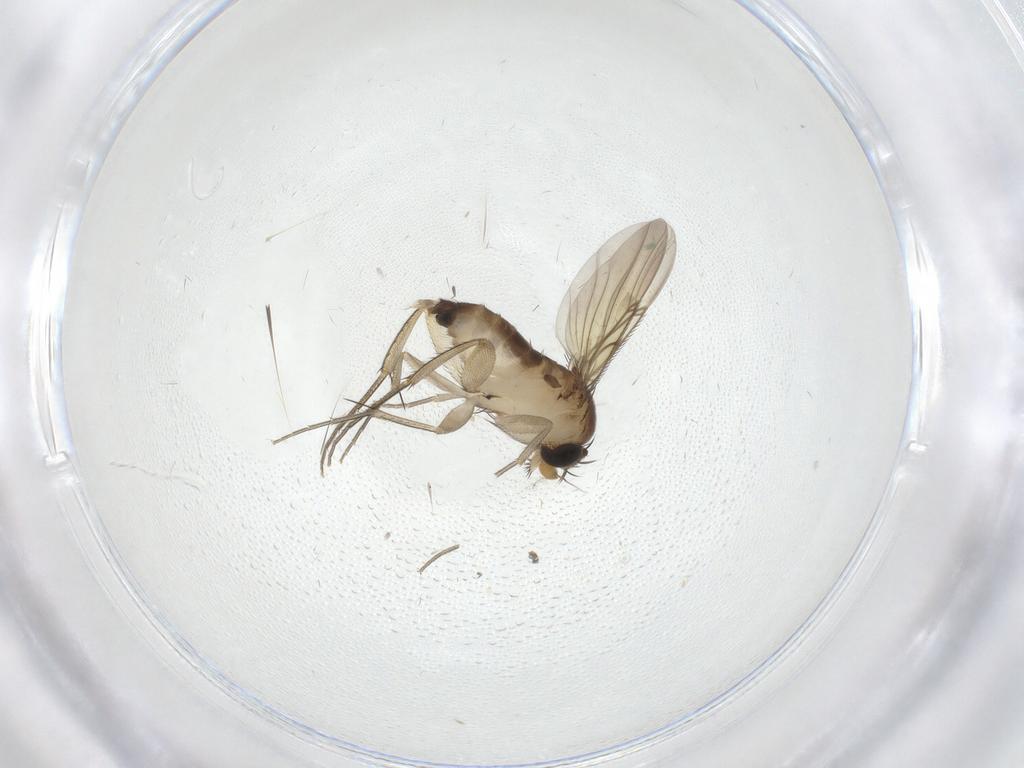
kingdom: Animalia
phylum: Arthropoda
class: Insecta
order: Diptera
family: Phoridae
